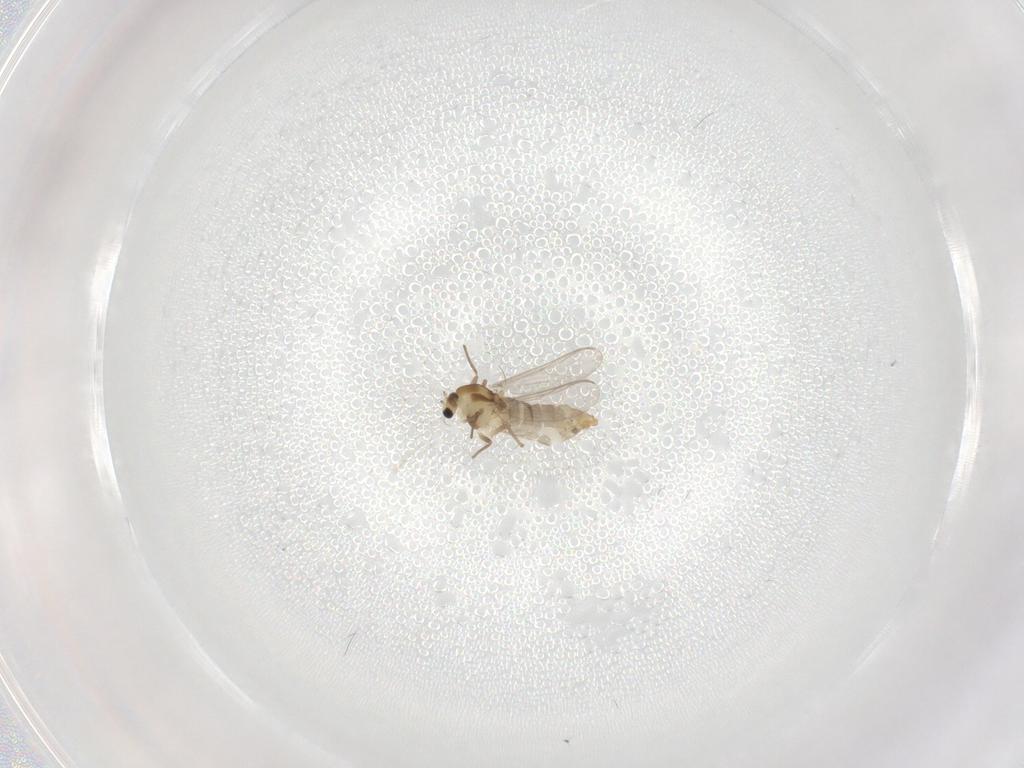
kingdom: Animalia
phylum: Arthropoda
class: Insecta
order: Diptera
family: Chironomidae
